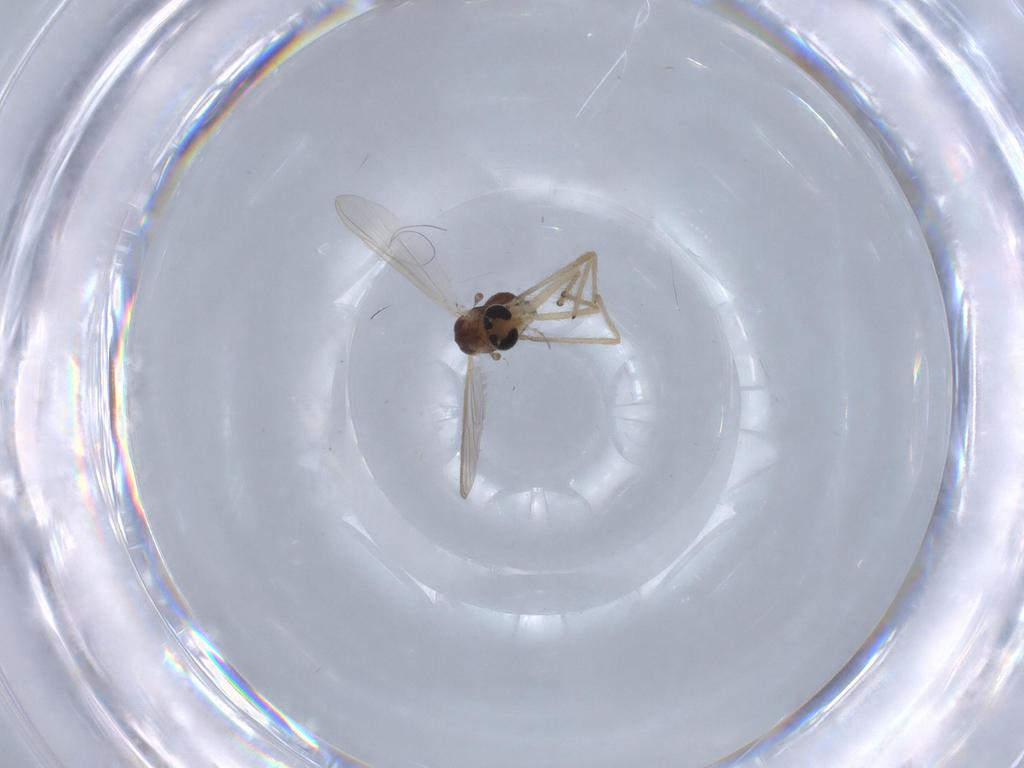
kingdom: Animalia
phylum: Arthropoda
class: Insecta
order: Diptera
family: Chironomidae
